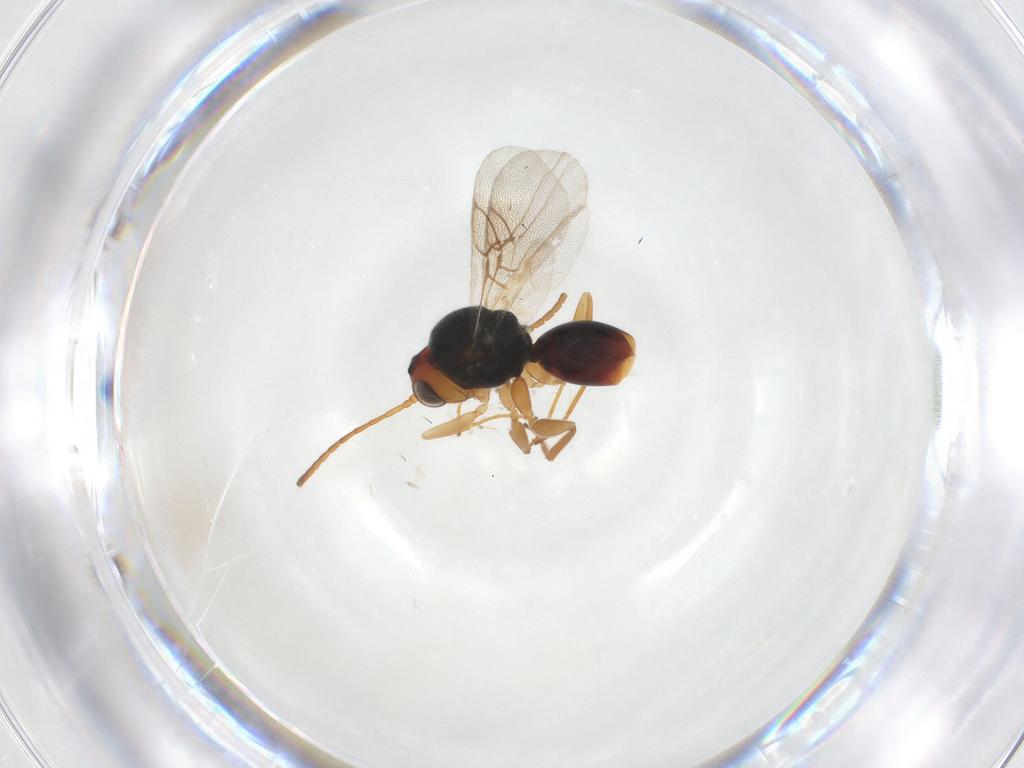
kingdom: Animalia
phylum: Arthropoda
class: Insecta
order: Hymenoptera
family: Cynipidae
